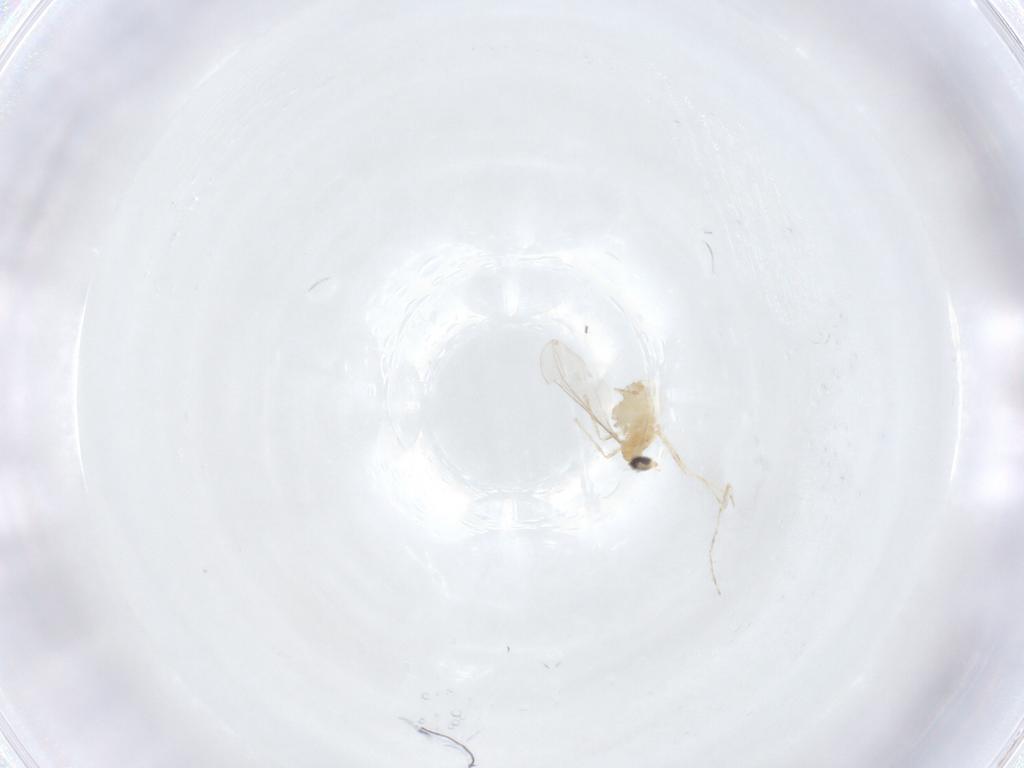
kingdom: Animalia
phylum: Arthropoda
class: Insecta
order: Diptera
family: Cecidomyiidae
